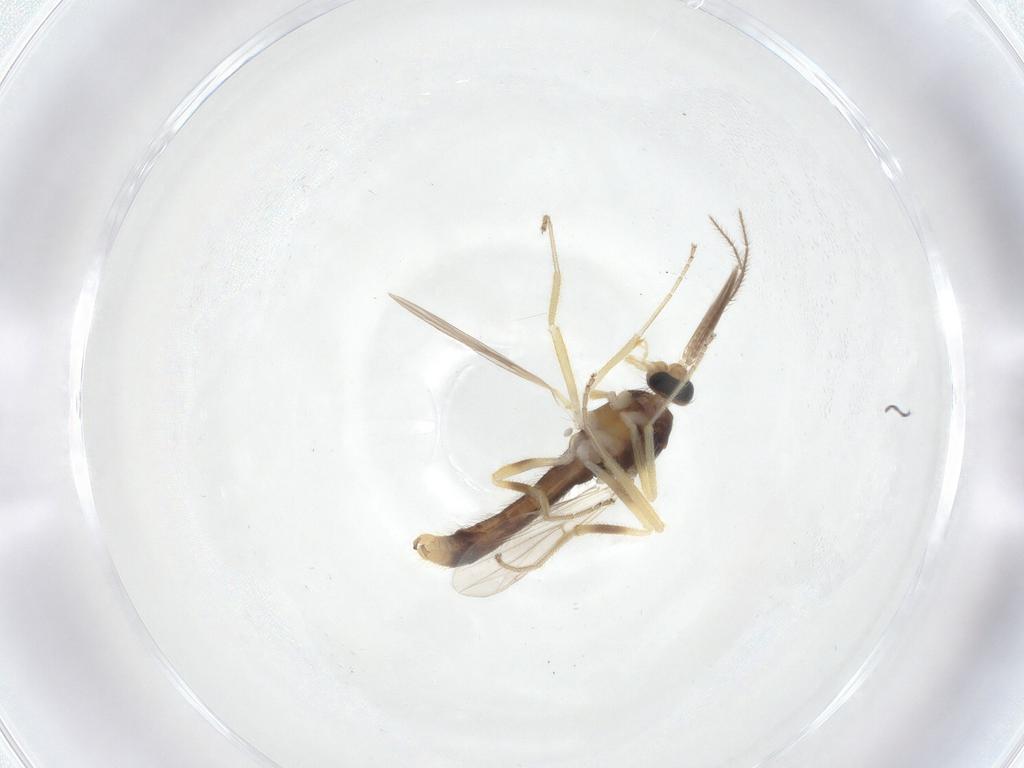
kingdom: Animalia
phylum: Arthropoda
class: Insecta
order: Diptera
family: Ceratopogonidae
